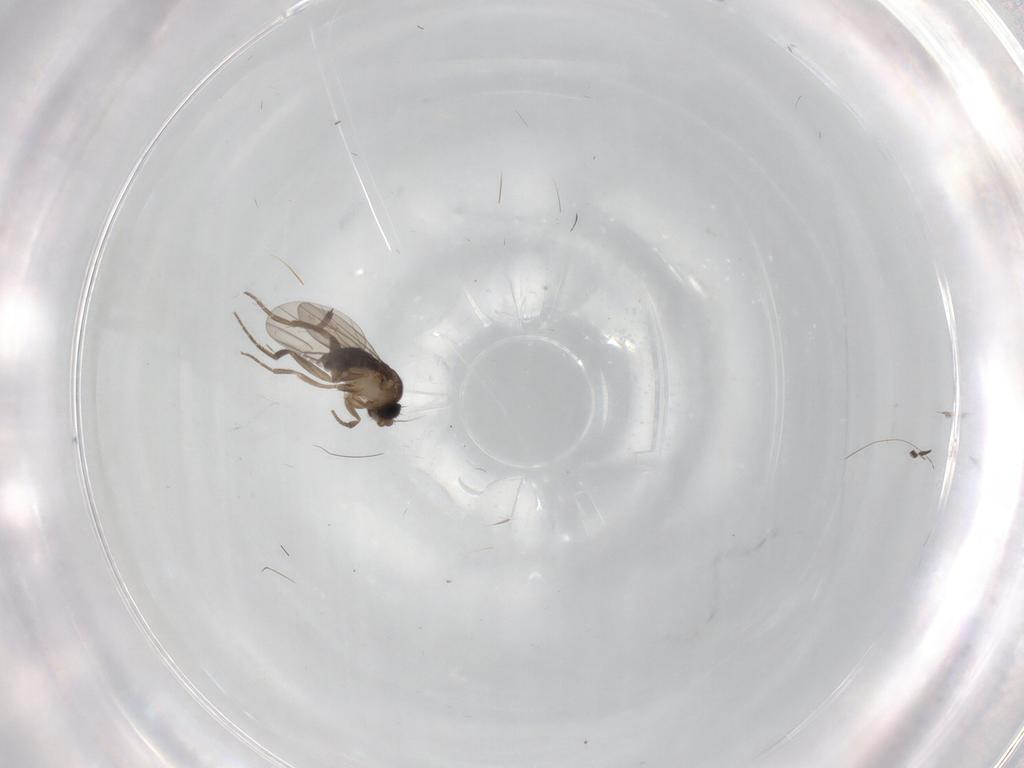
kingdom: Animalia
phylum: Arthropoda
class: Insecta
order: Diptera
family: Phoridae
